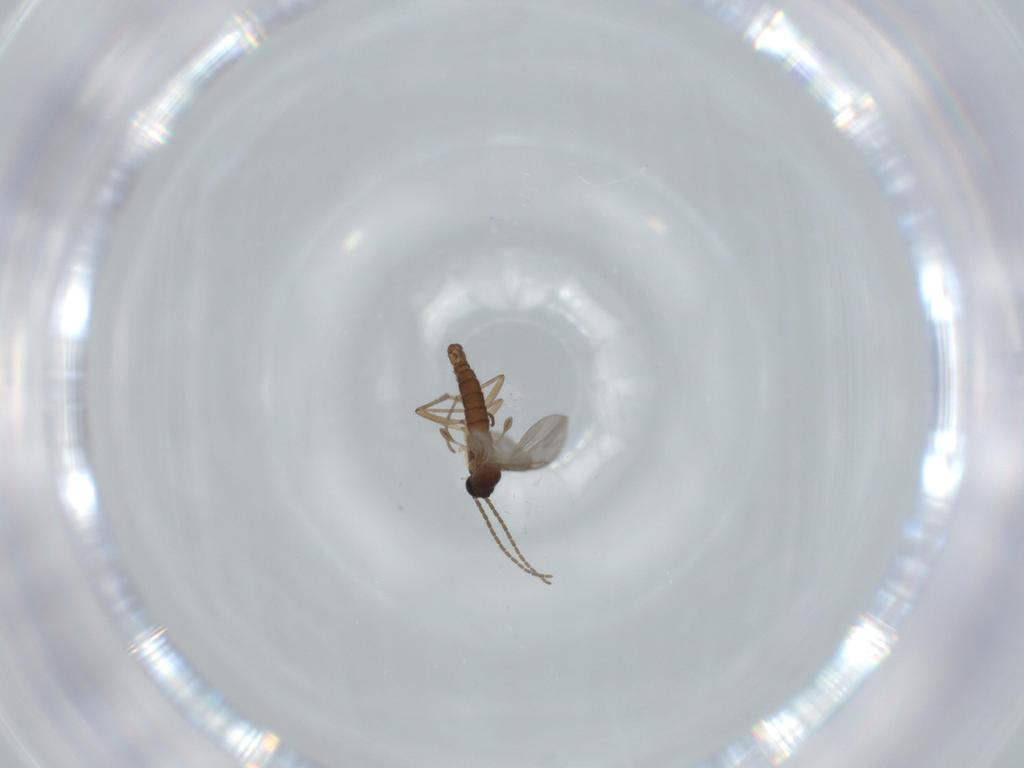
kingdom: Animalia
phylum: Arthropoda
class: Insecta
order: Diptera
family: Sciaridae
